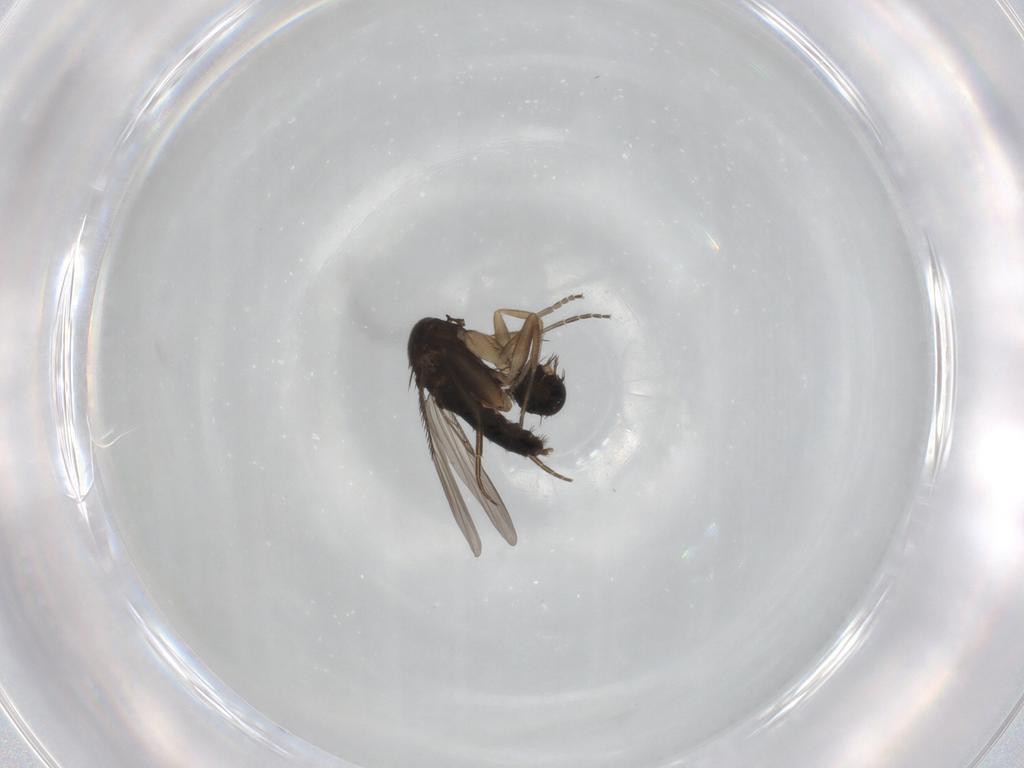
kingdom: Animalia
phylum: Arthropoda
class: Insecta
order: Diptera
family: Phoridae
